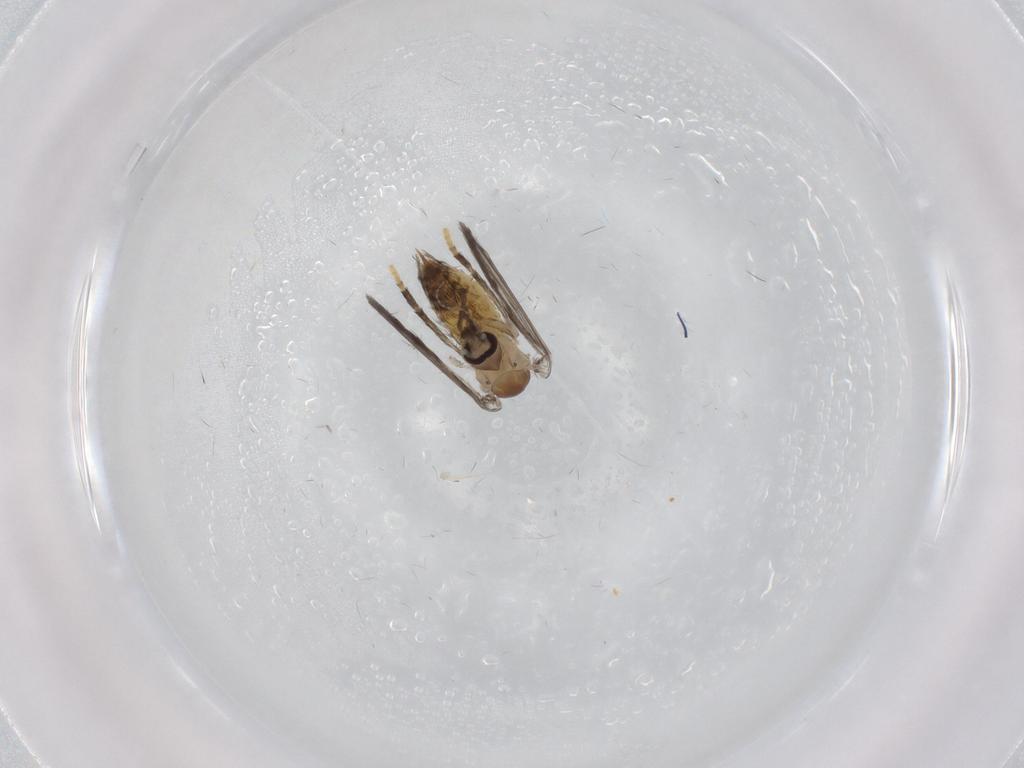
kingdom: Animalia
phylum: Arthropoda
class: Insecta
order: Diptera
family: Psychodidae
